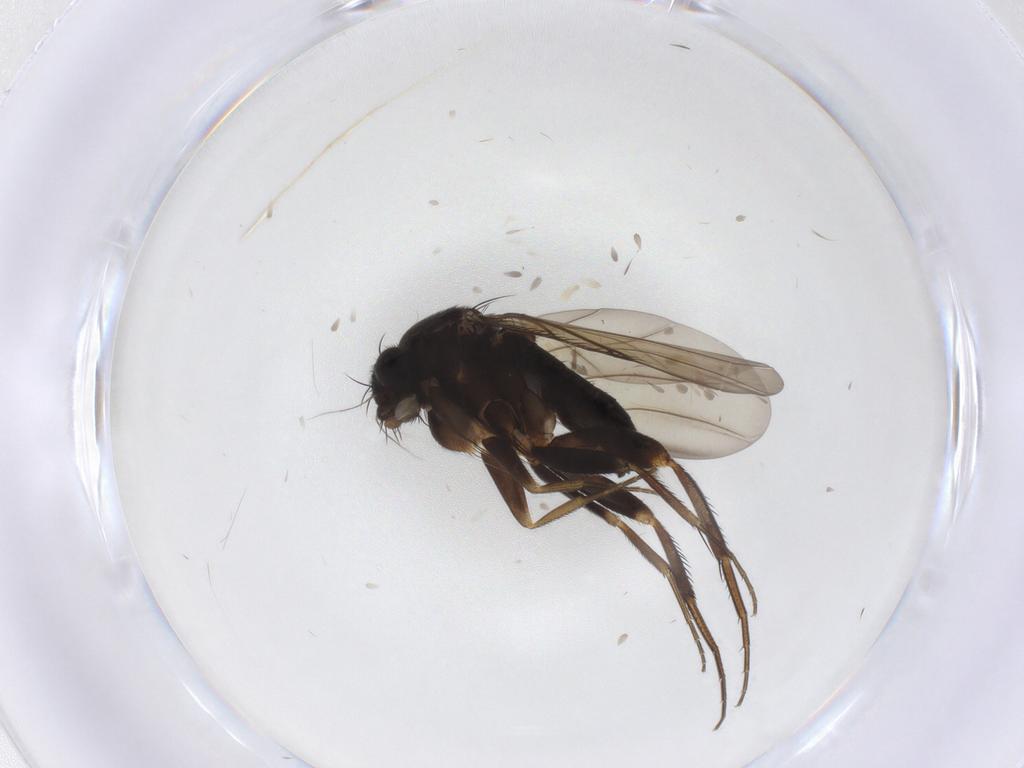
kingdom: Animalia
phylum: Arthropoda
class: Insecta
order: Diptera
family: Phoridae
